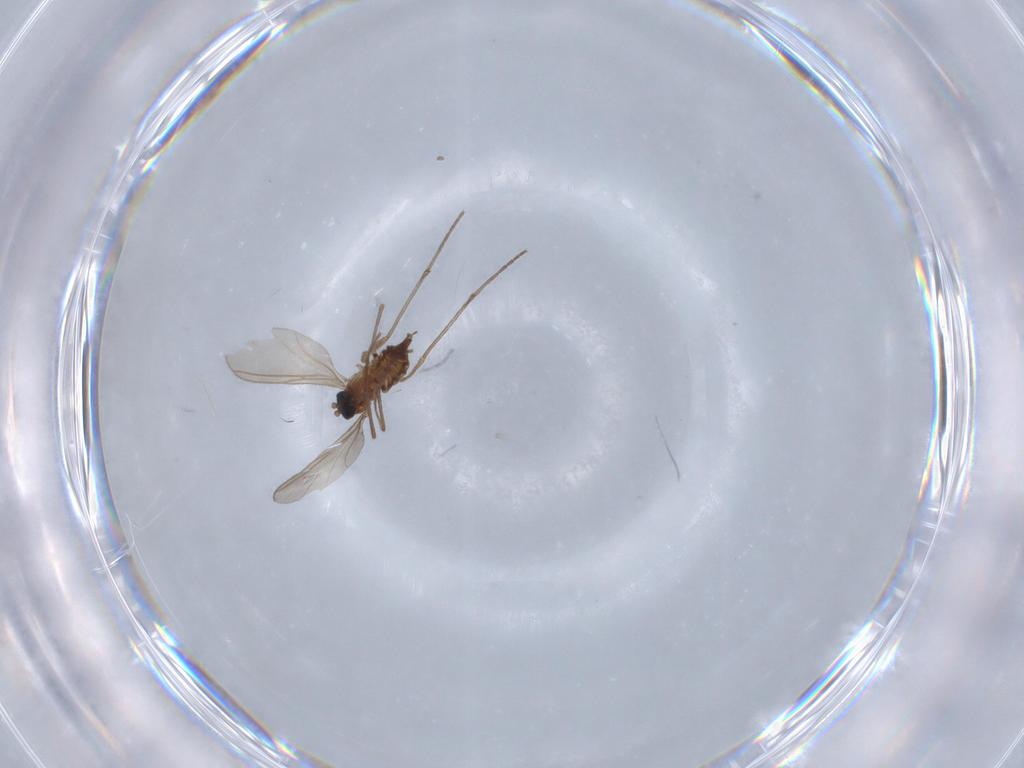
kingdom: Animalia
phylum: Arthropoda
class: Insecta
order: Diptera
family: Sciaridae
